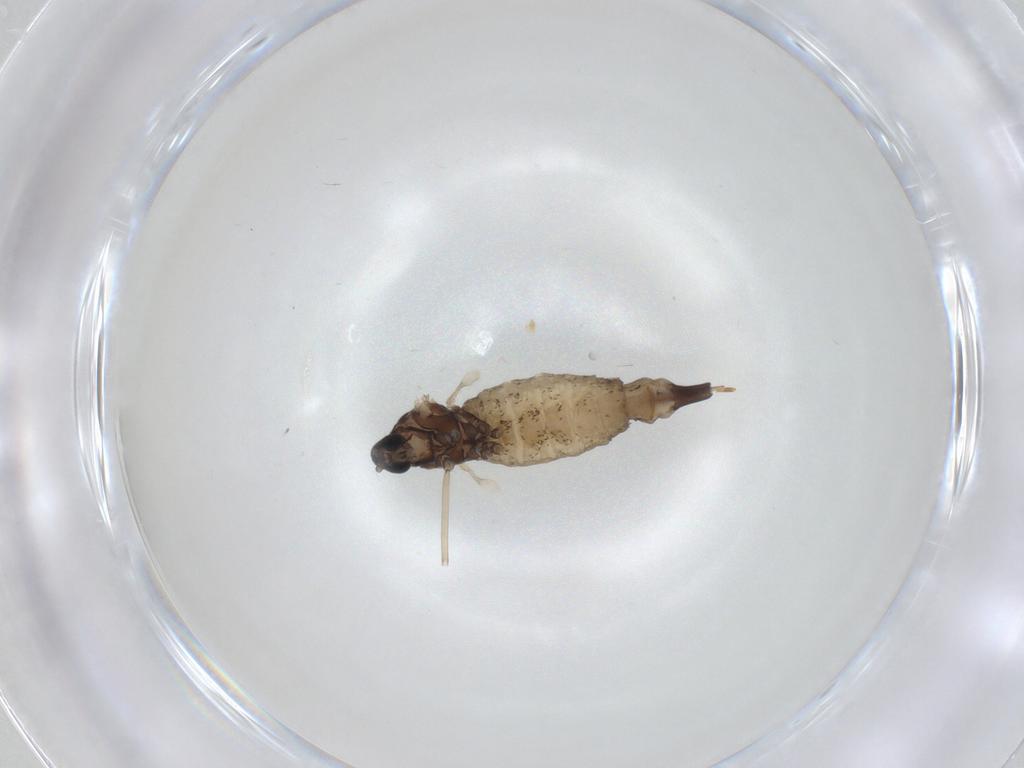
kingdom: Animalia
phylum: Arthropoda
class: Insecta
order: Diptera
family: Cecidomyiidae
